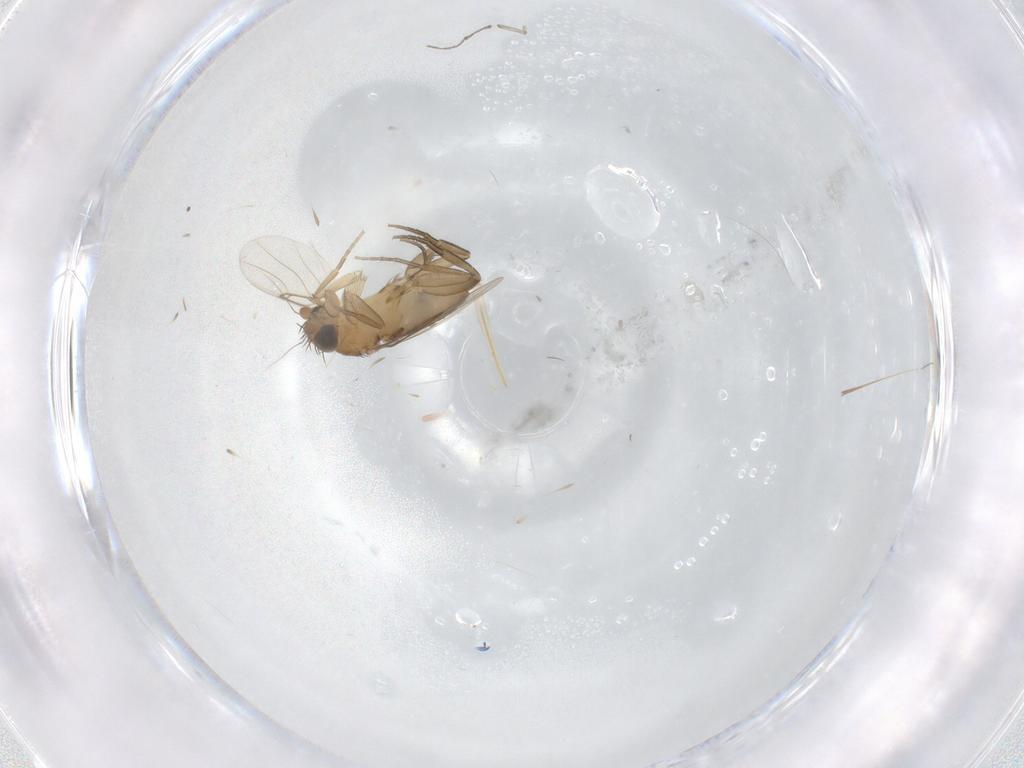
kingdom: Animalia
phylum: Arthropoda
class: Insecta
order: Diptera
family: Phoridae
